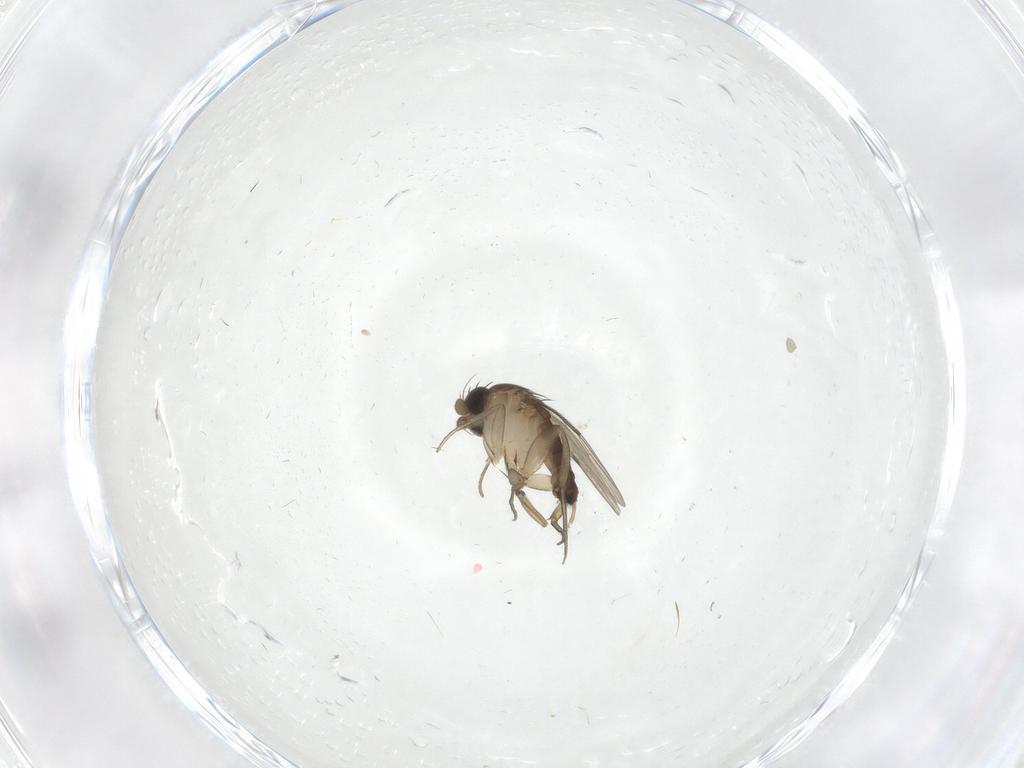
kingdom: Animalia
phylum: Arthropoda
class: Insecta
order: Diptera
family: Phoridae
